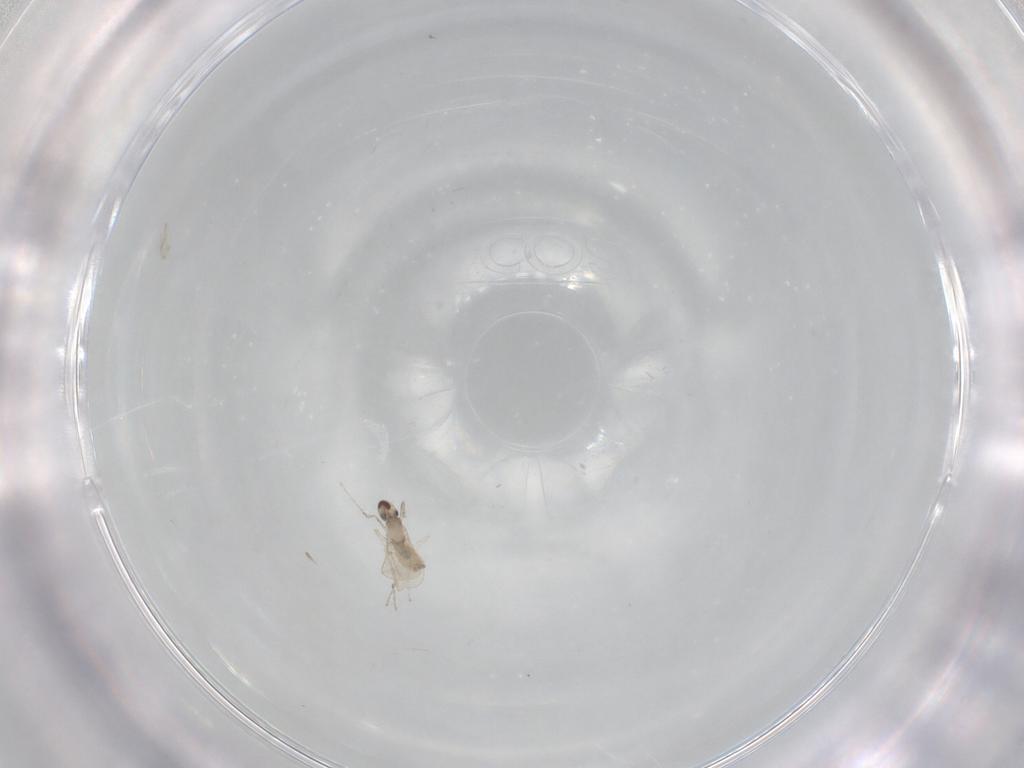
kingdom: Animalia
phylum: Arthropoda
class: Insecta
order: Diptera
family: Cecidomyiidae
